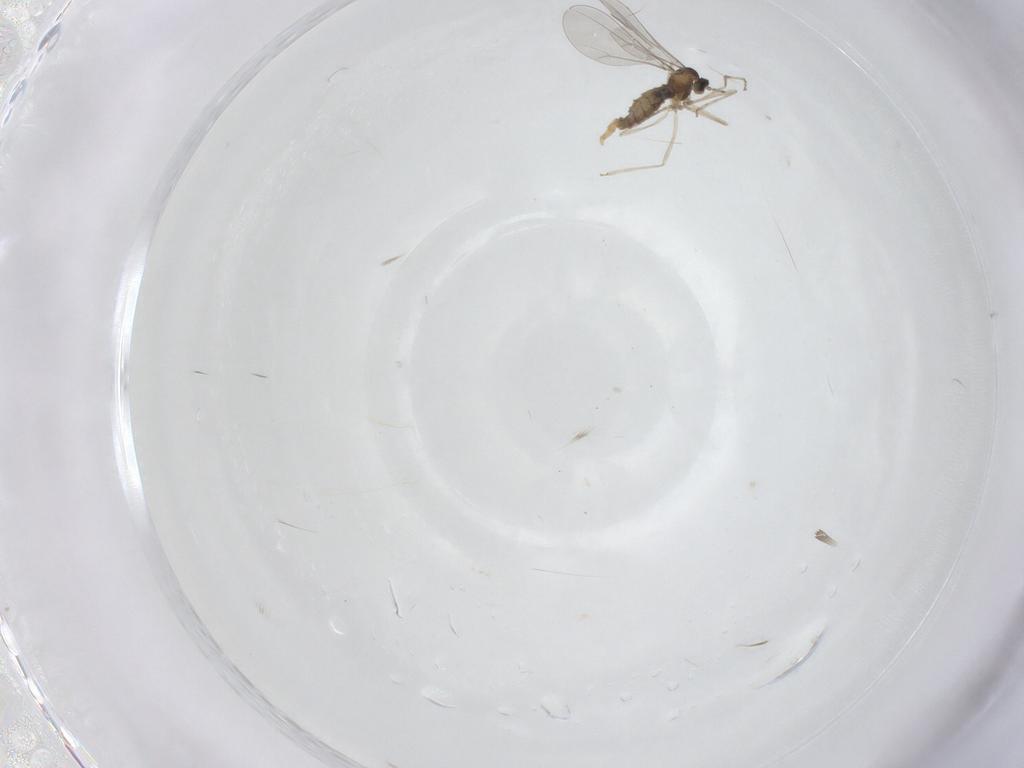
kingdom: Animalia
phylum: Arthropoda
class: Insecta
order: Diptera
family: Cecidomyiidae
